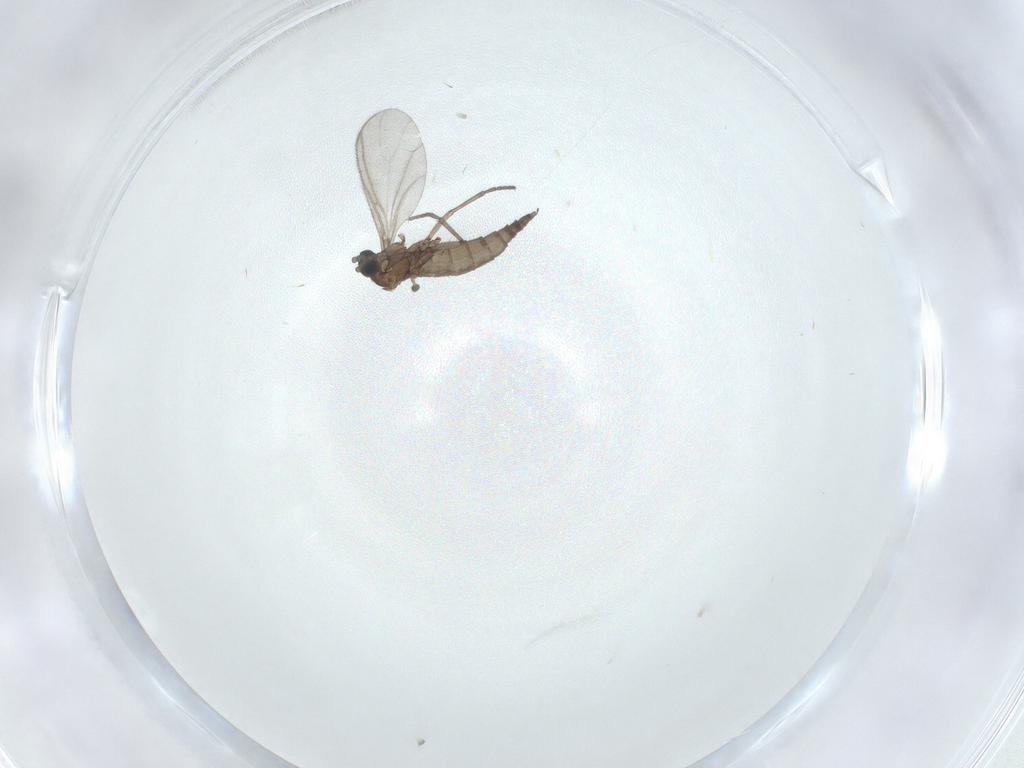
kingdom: Animalia
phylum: Arthropoda
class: Insecta
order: Diptera
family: Sciaridae
